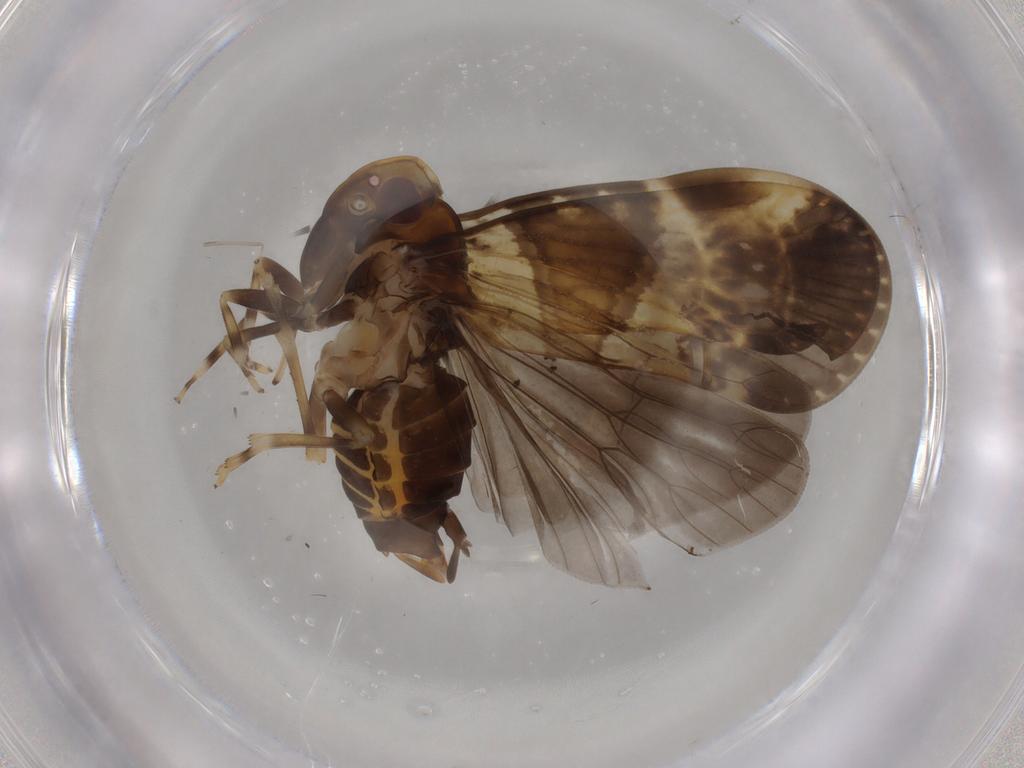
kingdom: Animalia
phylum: Arthropoda
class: Insecta
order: Hemiptera
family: Cixiidae
